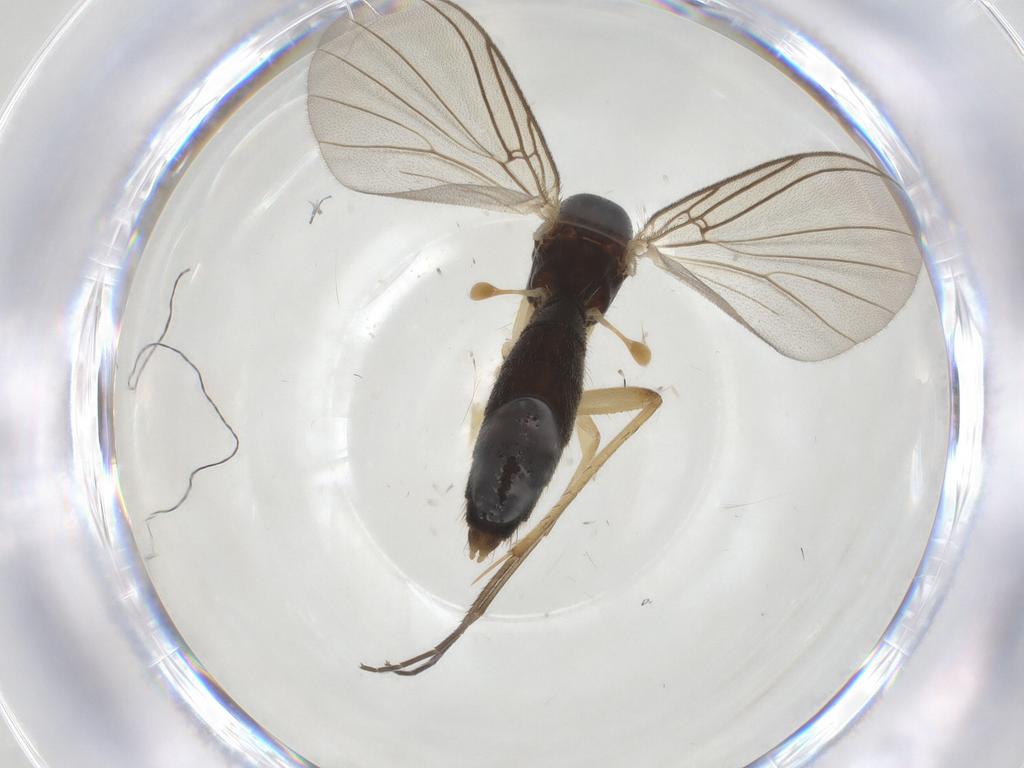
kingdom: Animalia
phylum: Arthropoda
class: Insecta
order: Diptera
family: Mycetophilidae
